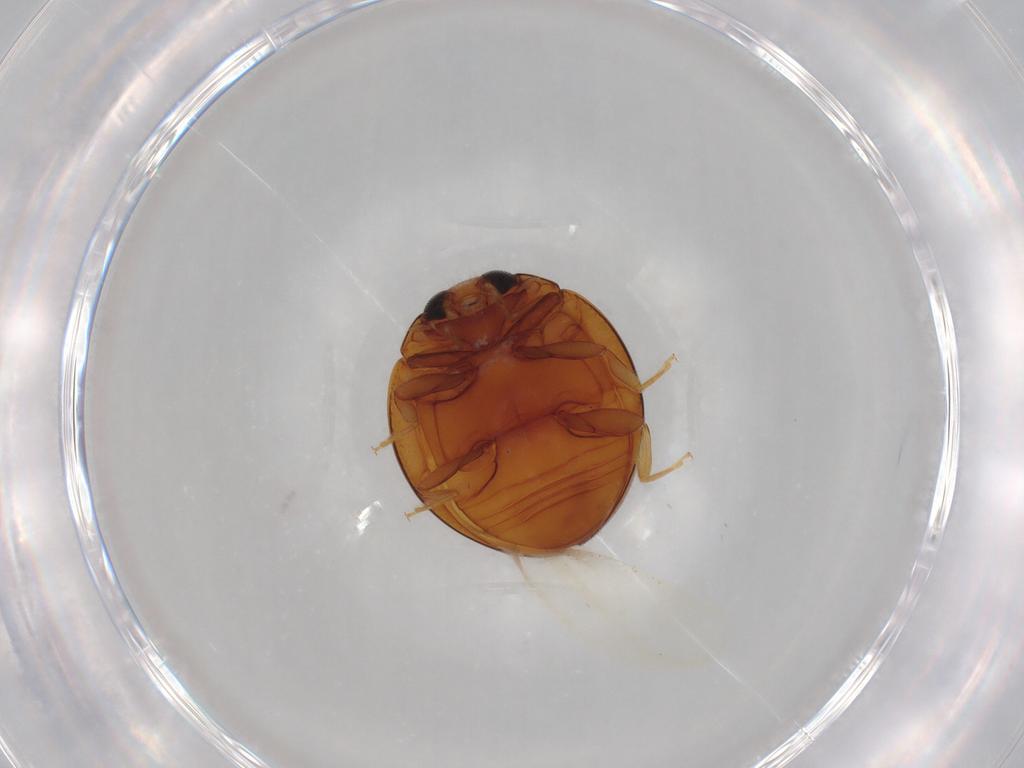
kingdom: Animalia
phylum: Arthropoda
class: Insecta
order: Coleoptera
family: Coccinellidae
